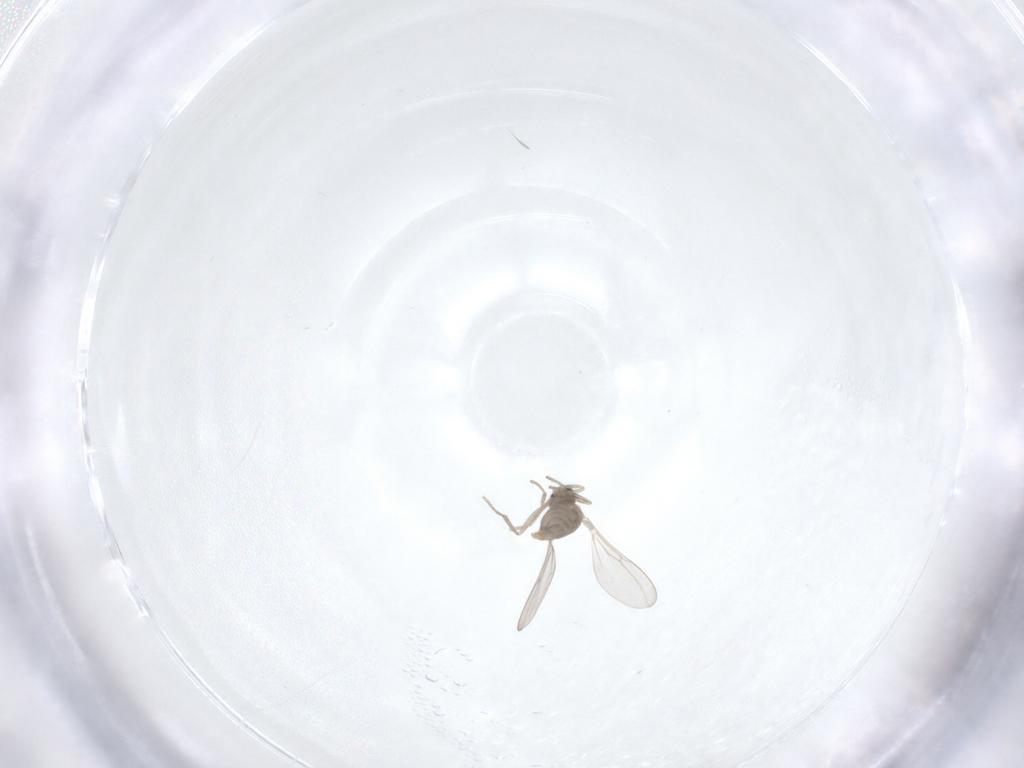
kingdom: Animalia
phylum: Arthropoda
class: Insecta
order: Diptera
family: Chironomidae
